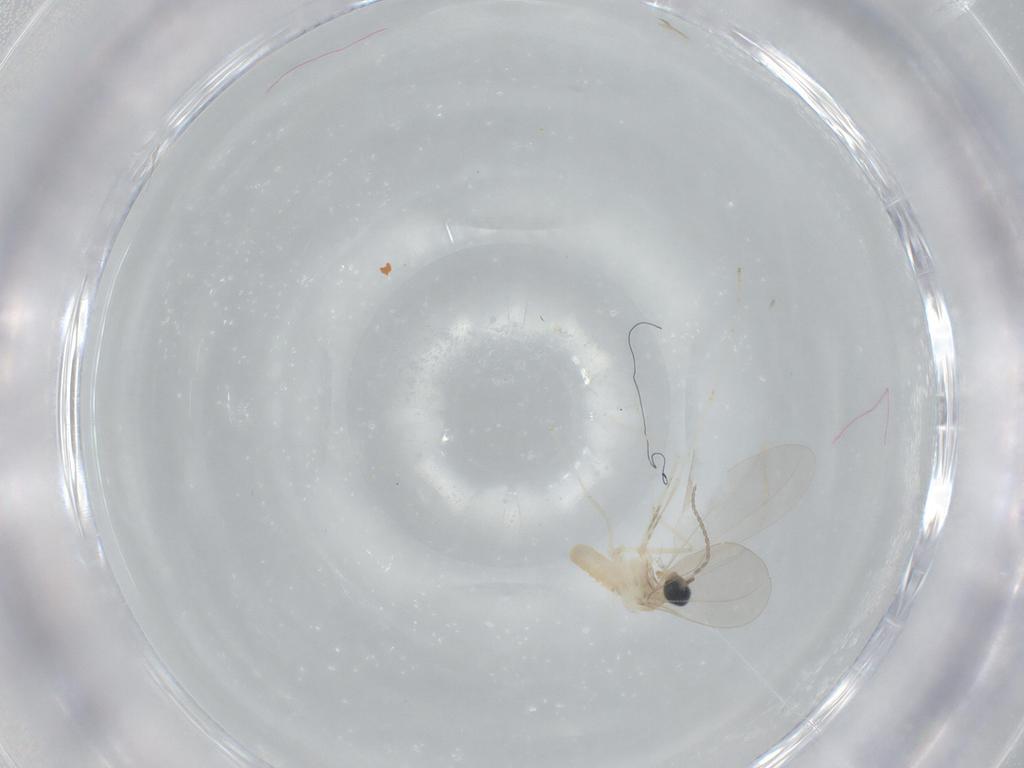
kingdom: Animalia
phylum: Arthropoda
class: Insecta
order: Diptera
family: Cecidomyiidae
